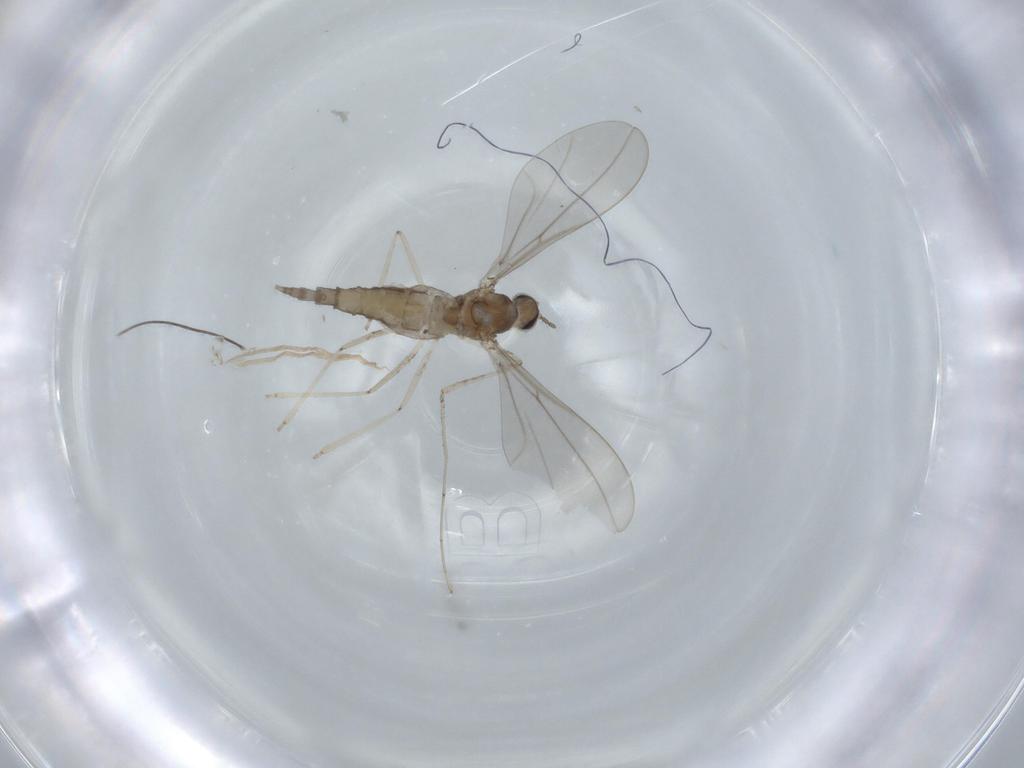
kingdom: Animalia
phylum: Arthropoda
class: Insecta
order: Diptera
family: Cecidomyiidae
